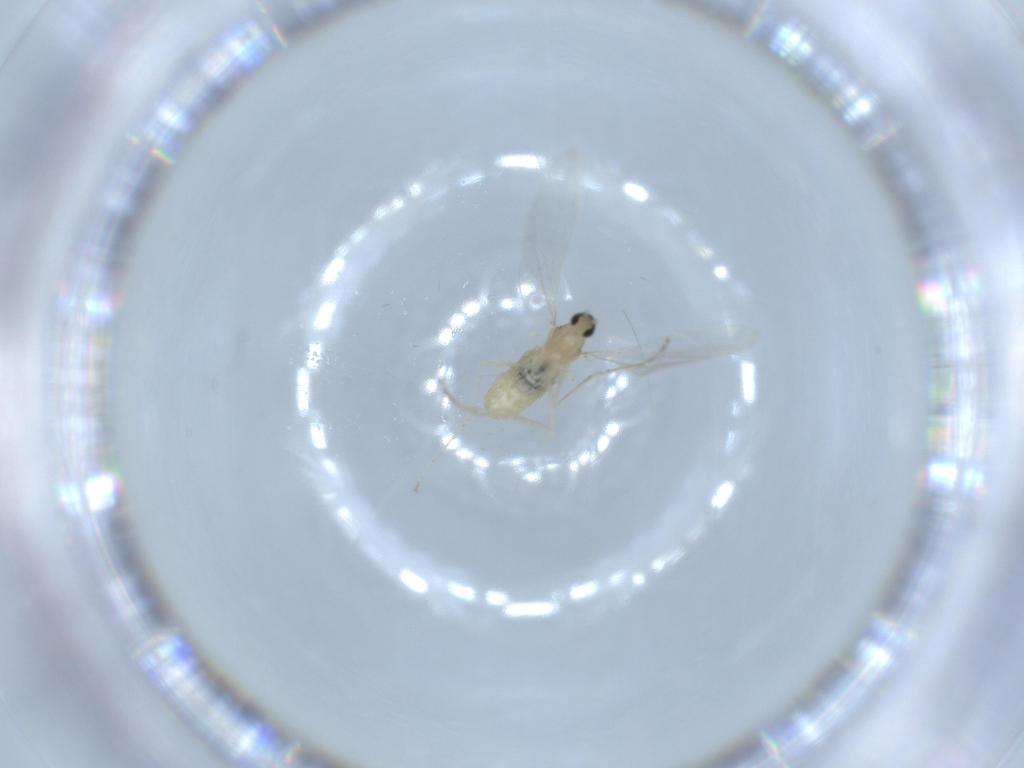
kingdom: Animalia
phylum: Arthropoda
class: Insecta
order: Diptera
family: Cecidomyiidae
